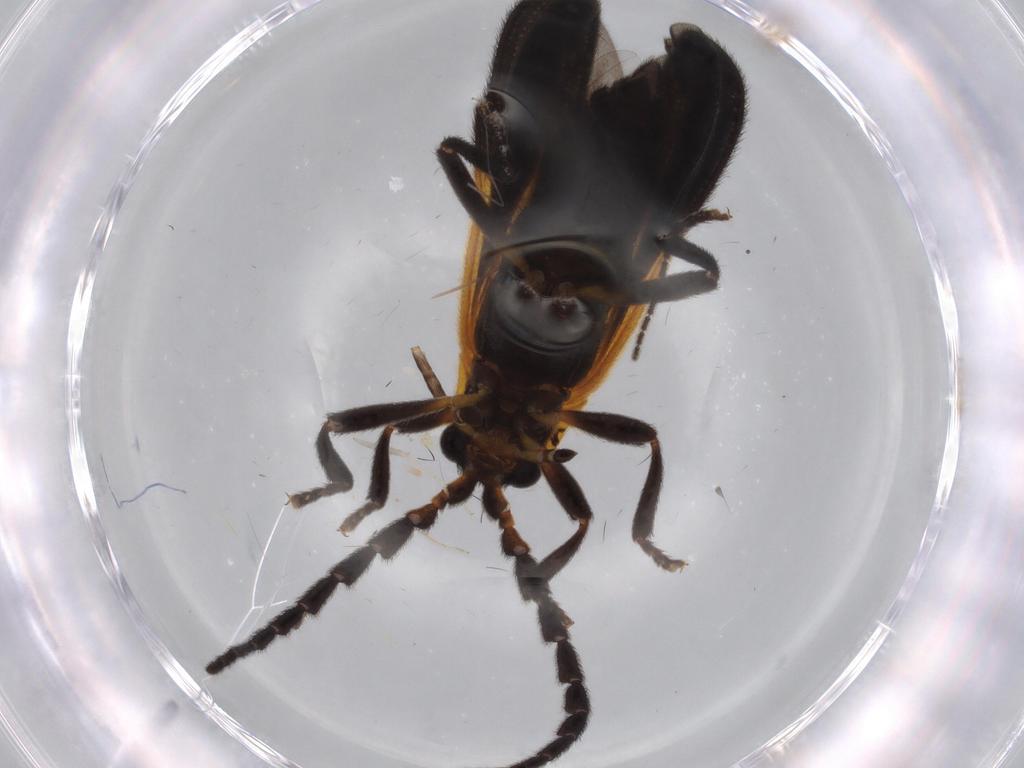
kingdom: Animalia
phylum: Arthropoda
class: Insecta
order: Coleoptera
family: Lycidae
